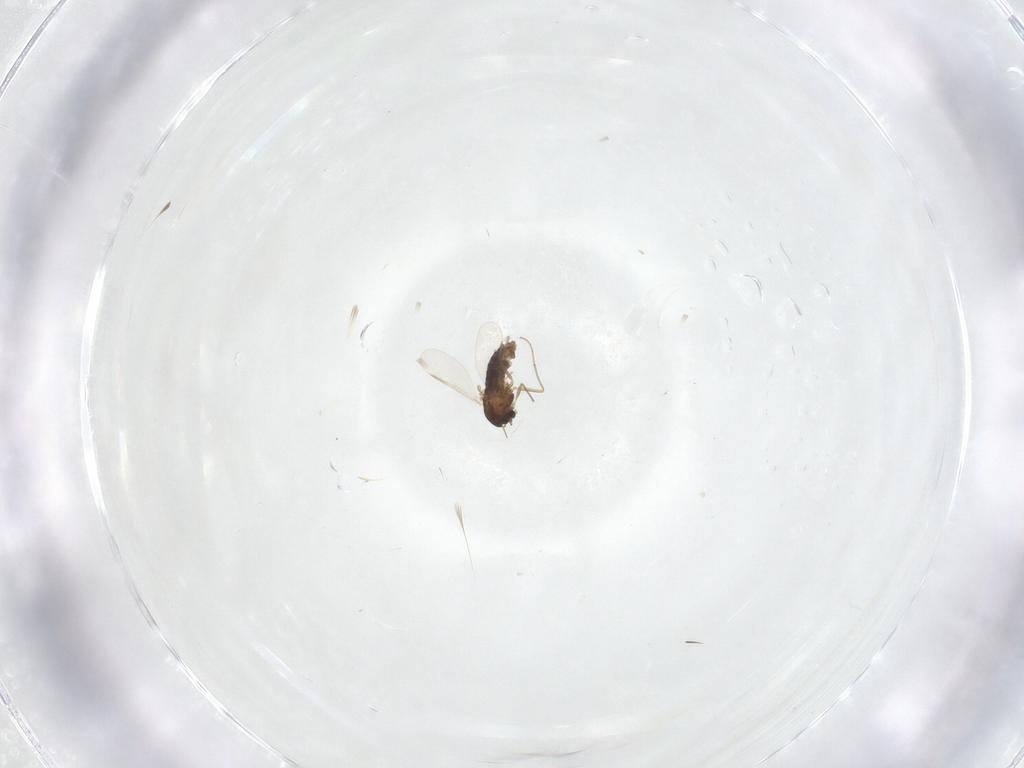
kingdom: Animalia
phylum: Arthropoda
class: Insecta
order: Diptera
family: Chironomidae
